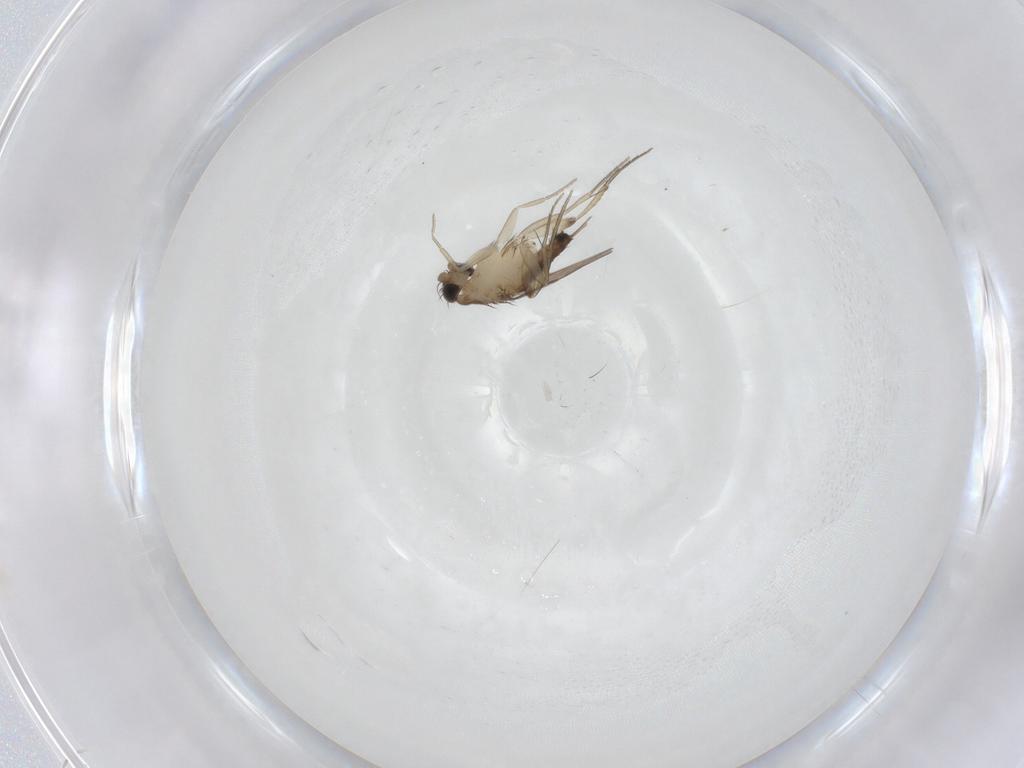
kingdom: Animalia
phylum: Arthropoda
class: Insecta
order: Diptera
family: Phoridae
